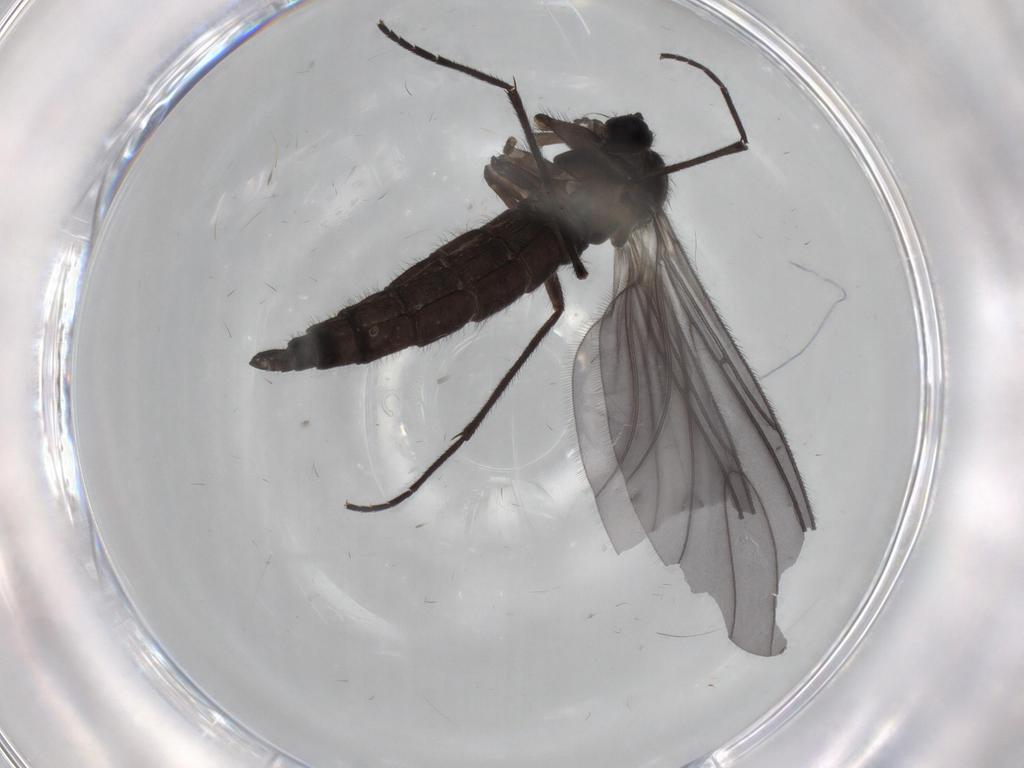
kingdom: Animalia
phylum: Arthropoda
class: Insecta
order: Diptera
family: Sciaridae
